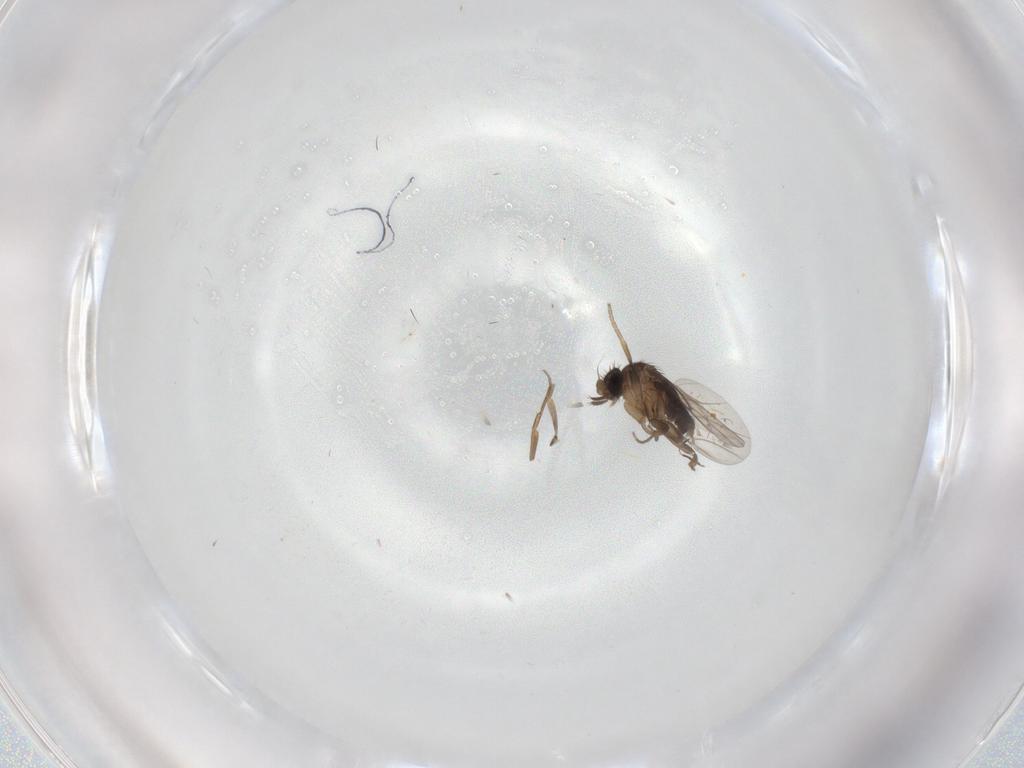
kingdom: Animalia
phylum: Arthropoda
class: Insecta
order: Diptera
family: Phoridae
